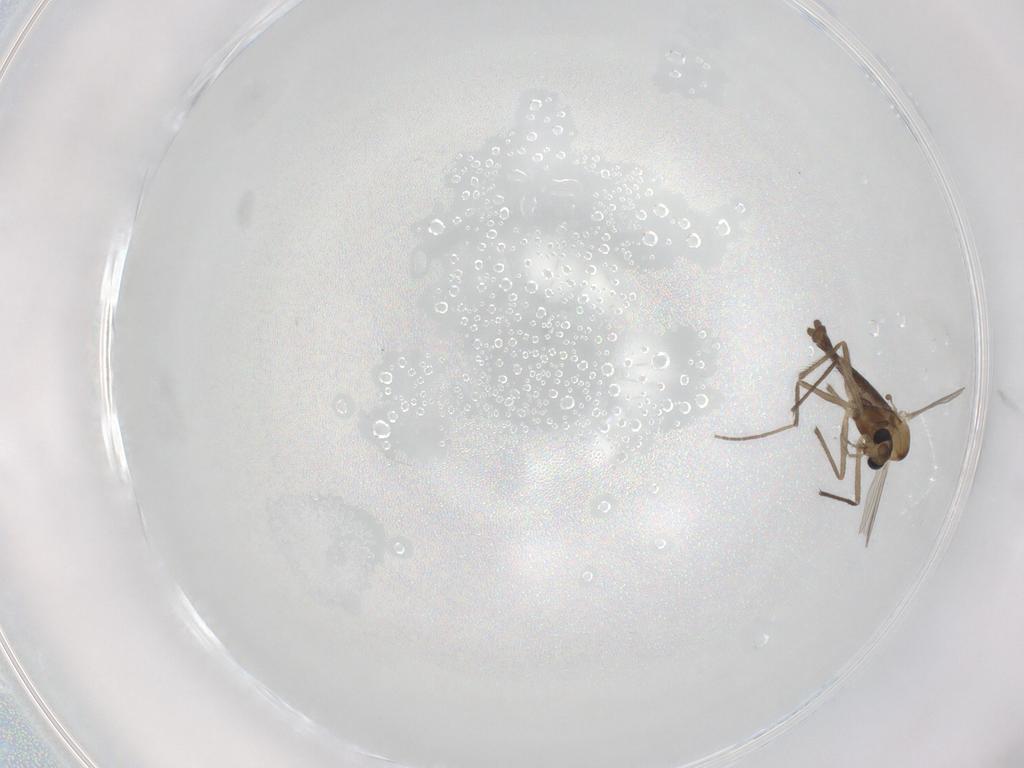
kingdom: Animalia
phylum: Arthropoda
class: Insecta
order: Diptera
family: Chironomidae
